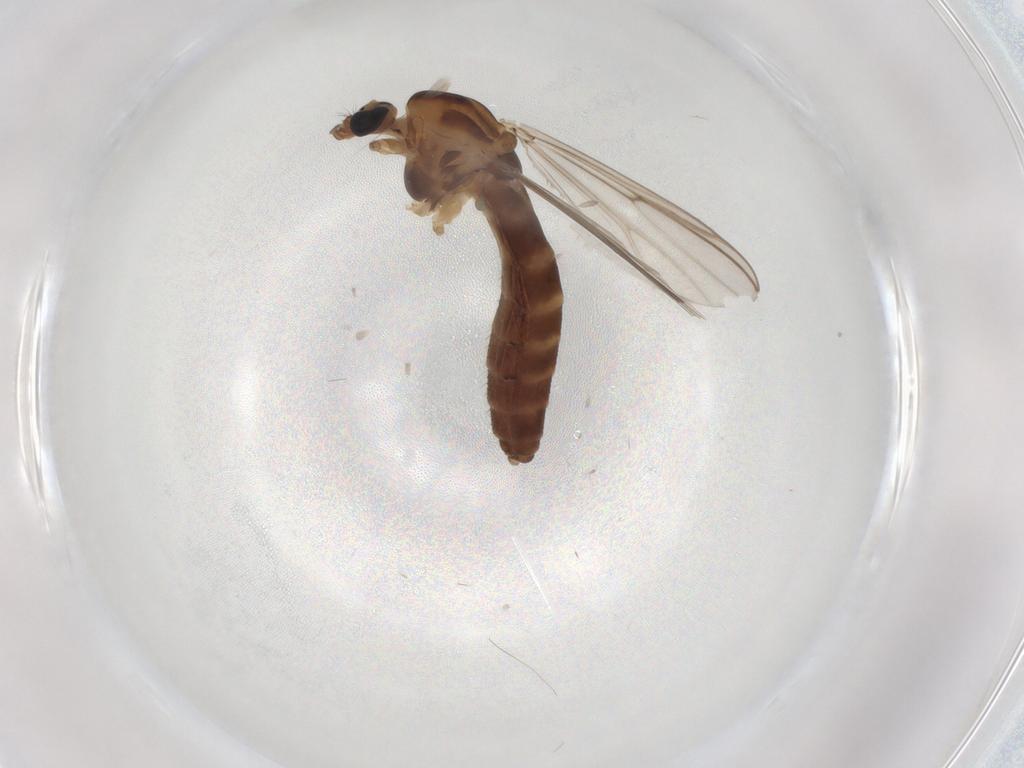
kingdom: Animalia
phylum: Arthropoda
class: Insecta
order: Diptera
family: Chironomidae
